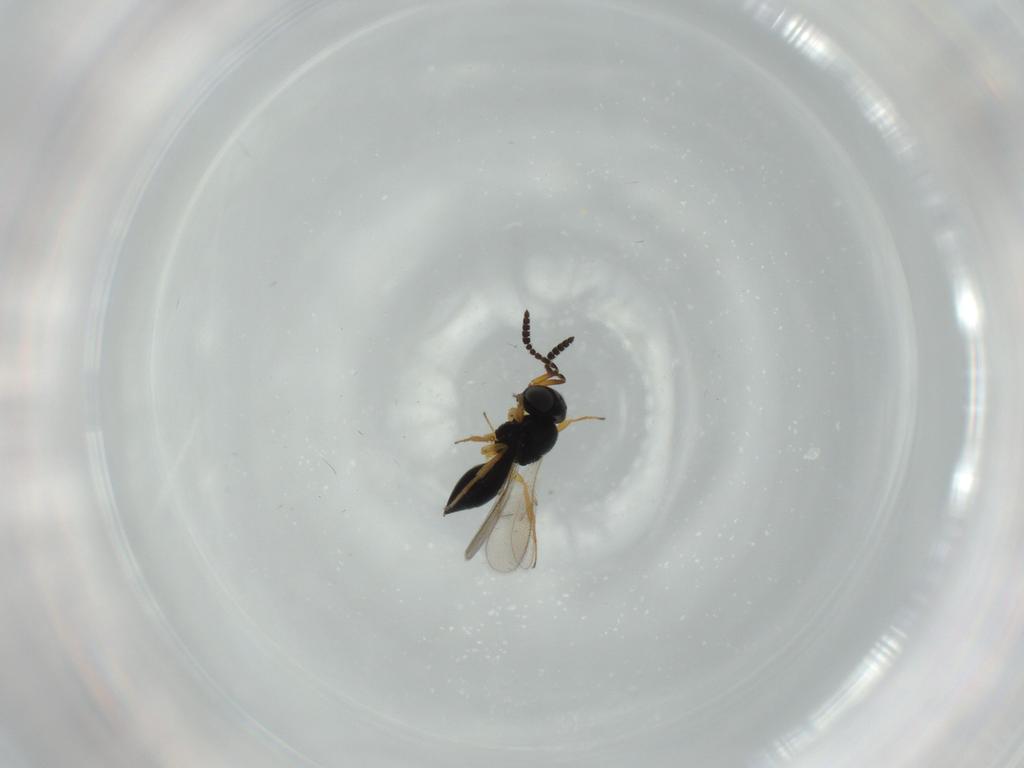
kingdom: Animalia
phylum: Arthropoda
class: Insecta
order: Hymenoptera
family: Scelionidae
